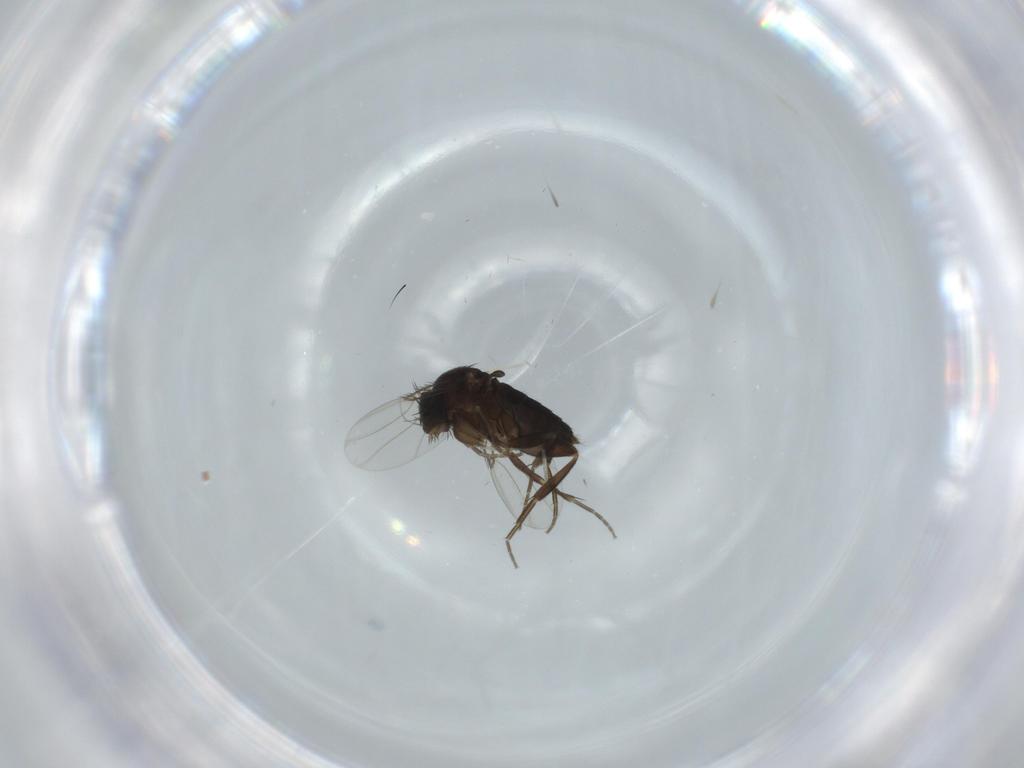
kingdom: Animalia
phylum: Arthropoda
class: Insecta
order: Diptera
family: Phoridae
